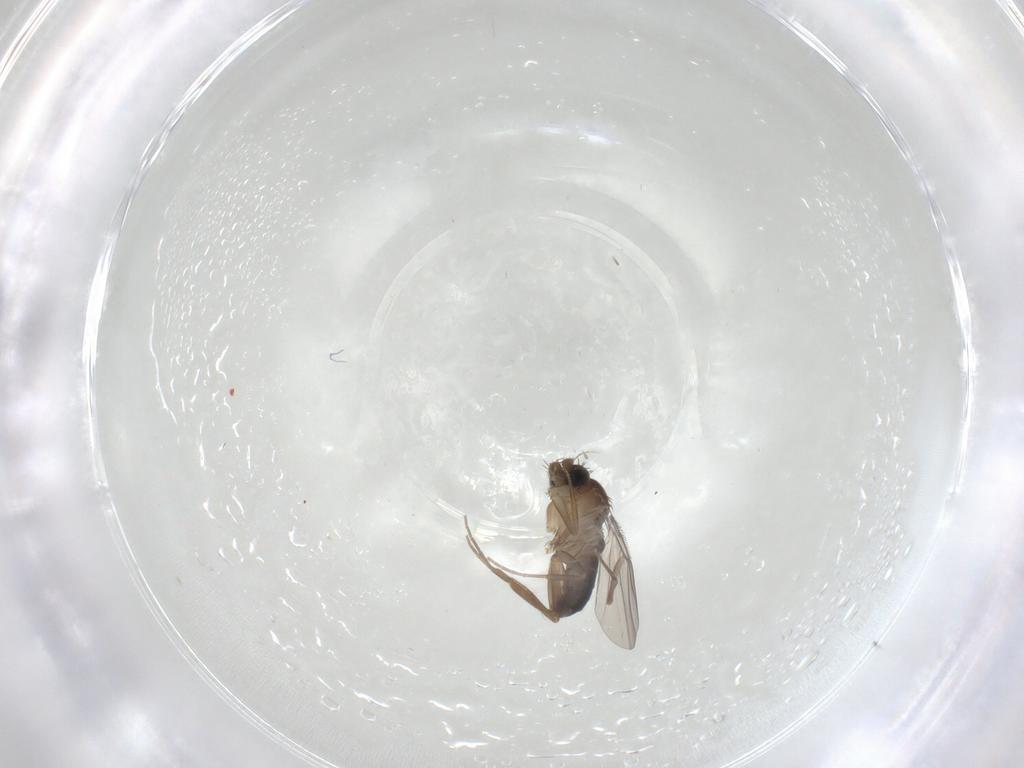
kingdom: Animalia
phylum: Arthropoda
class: Insecta
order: Diptera
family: Cecidomyiidae
